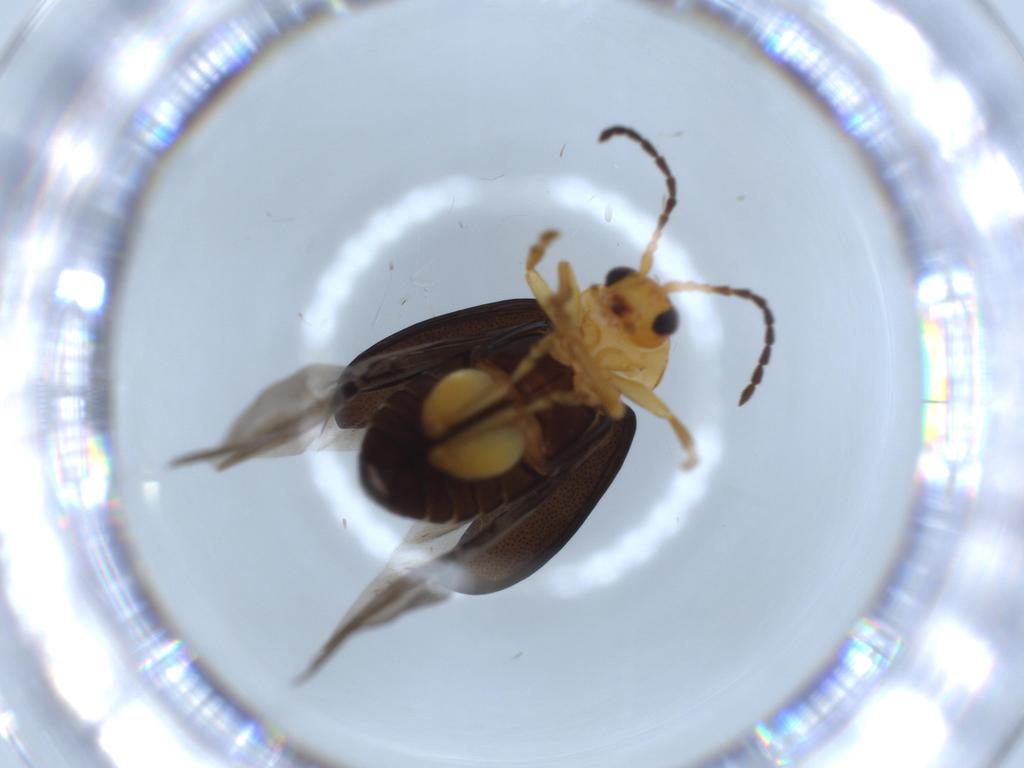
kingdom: Animalia
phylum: Arthropoda
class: Insecta
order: Coleoptera
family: Chrysomelidae
